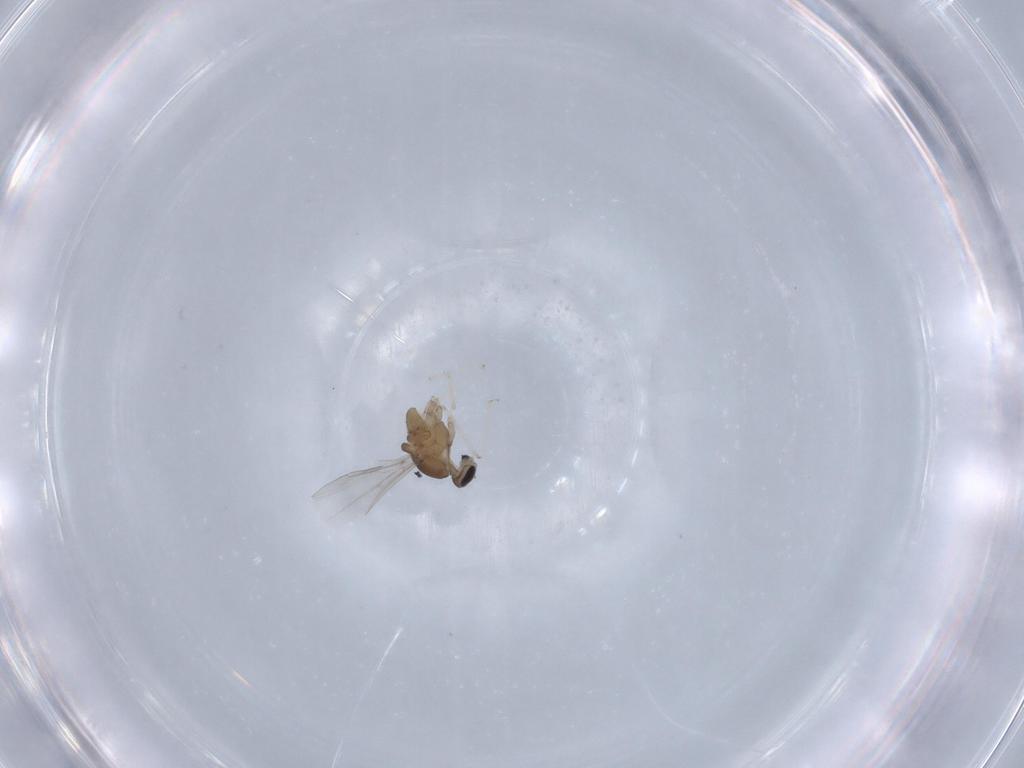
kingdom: Animalia
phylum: Arthropoda
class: Insecta
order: Diptera
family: Cecidomyiidae
